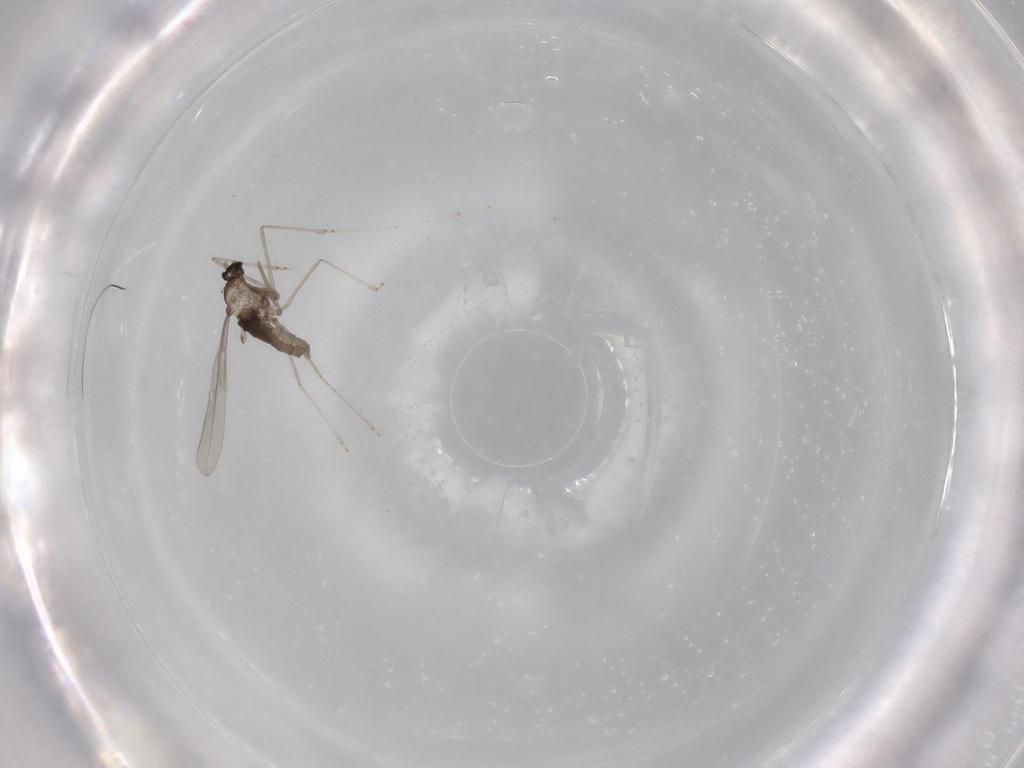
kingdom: Animalia
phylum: Arthropoda
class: Insecta
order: Diptera
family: Cecidomyiidae
